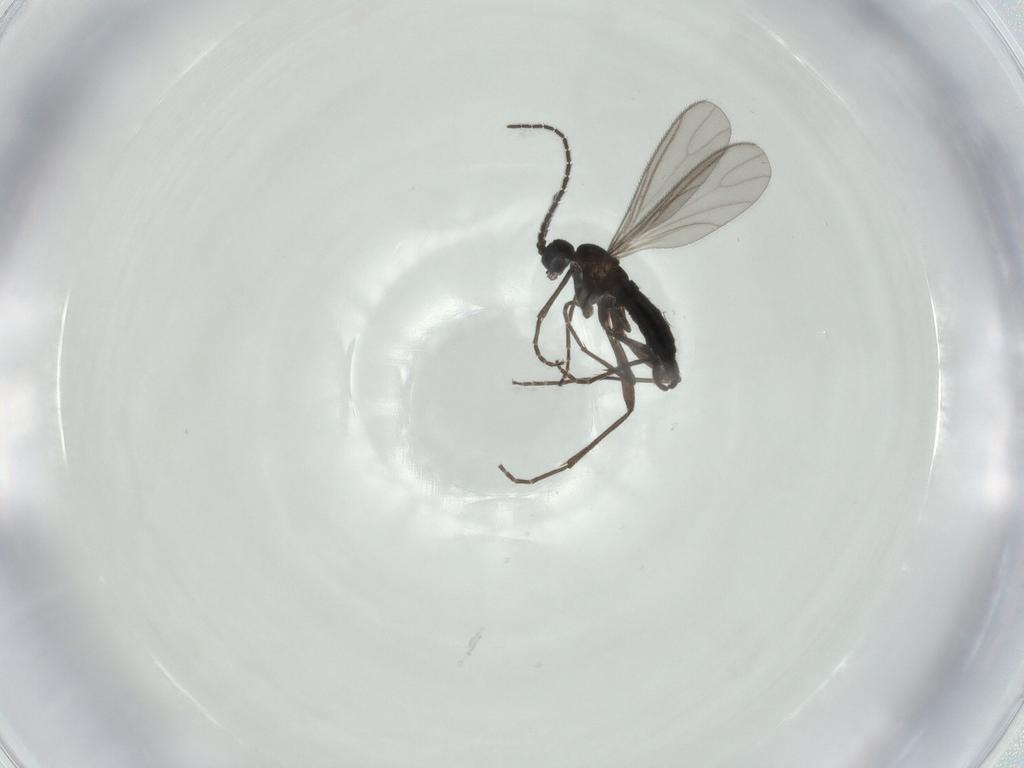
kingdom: Animalia
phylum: Arthropoda
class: Insecta
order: Diptera
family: Sciaridae
